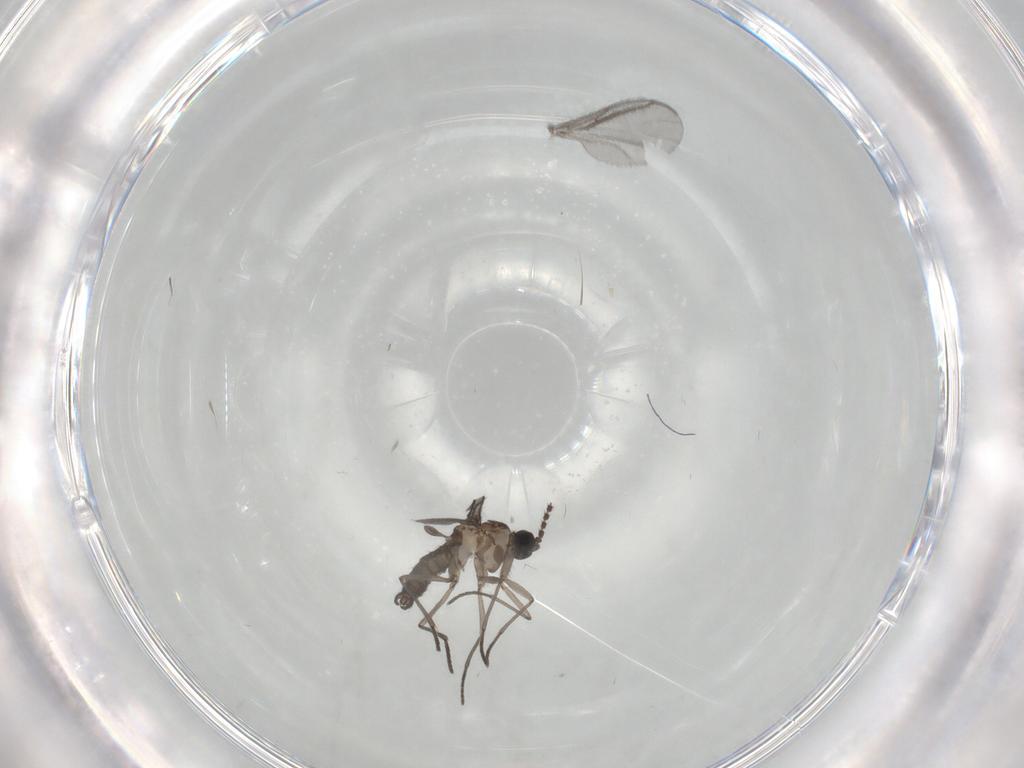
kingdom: Animalia
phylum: Arthropoda
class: Insecta
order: Diptera
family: Sciaridae
